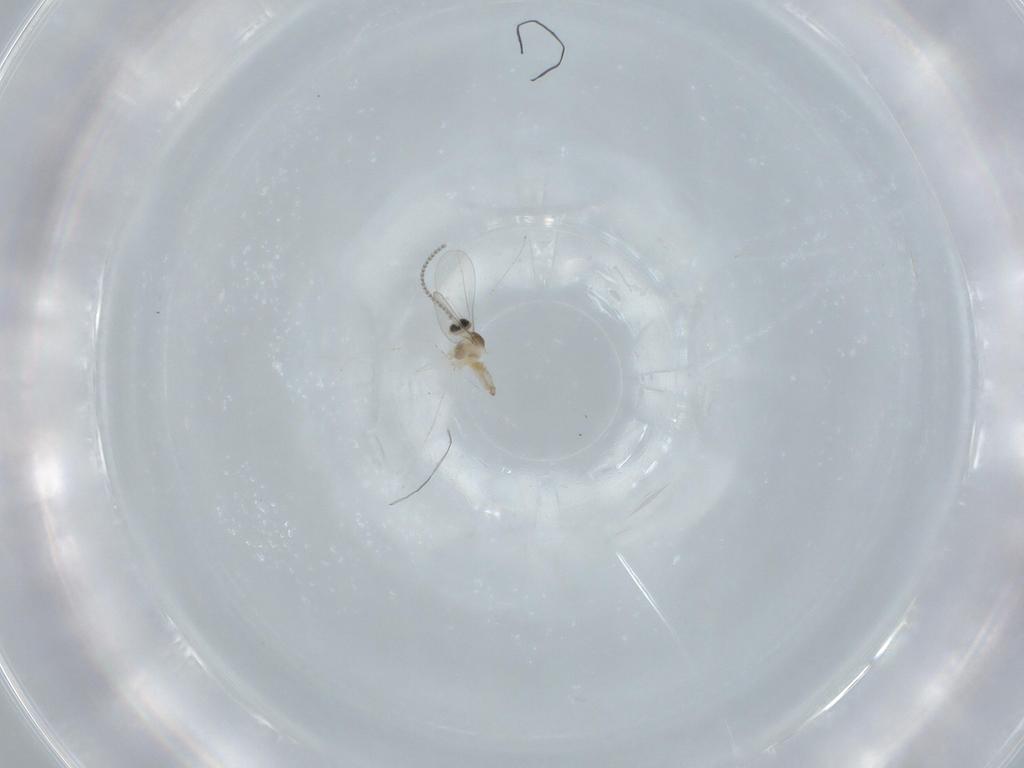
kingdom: Animalia
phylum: Arthropoda
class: Insecta
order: Diptera
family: Cecidomyiidae
